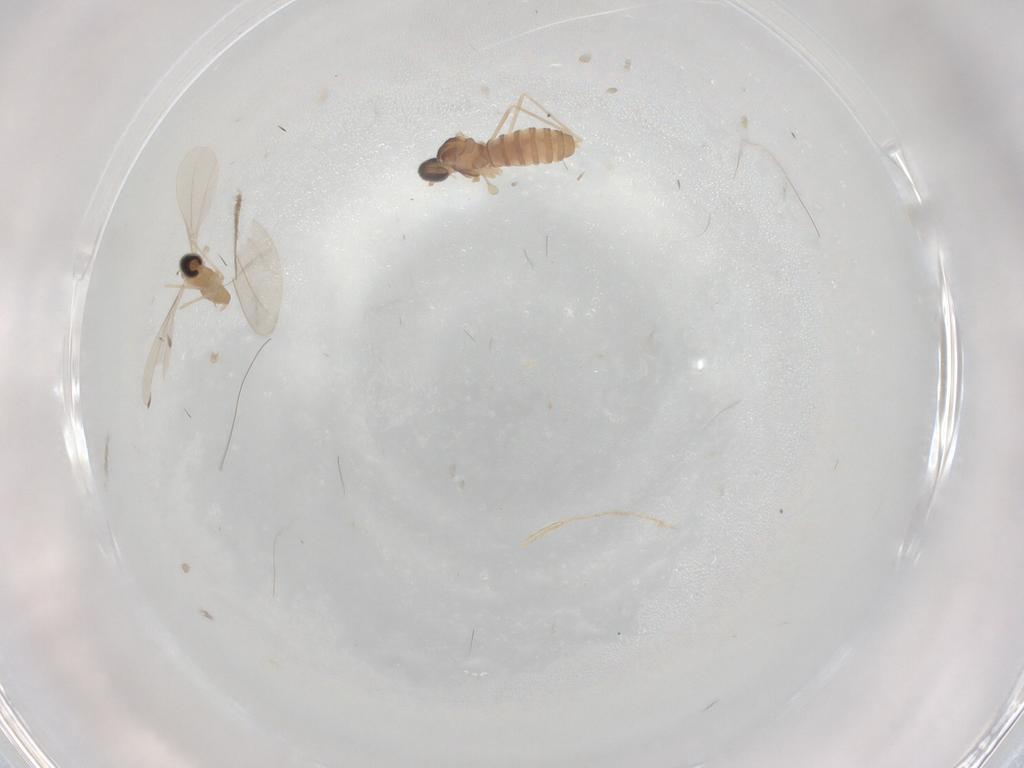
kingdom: Animalia
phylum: Arthropoda
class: Insecta
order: Diptera
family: Cecidomyiidae
